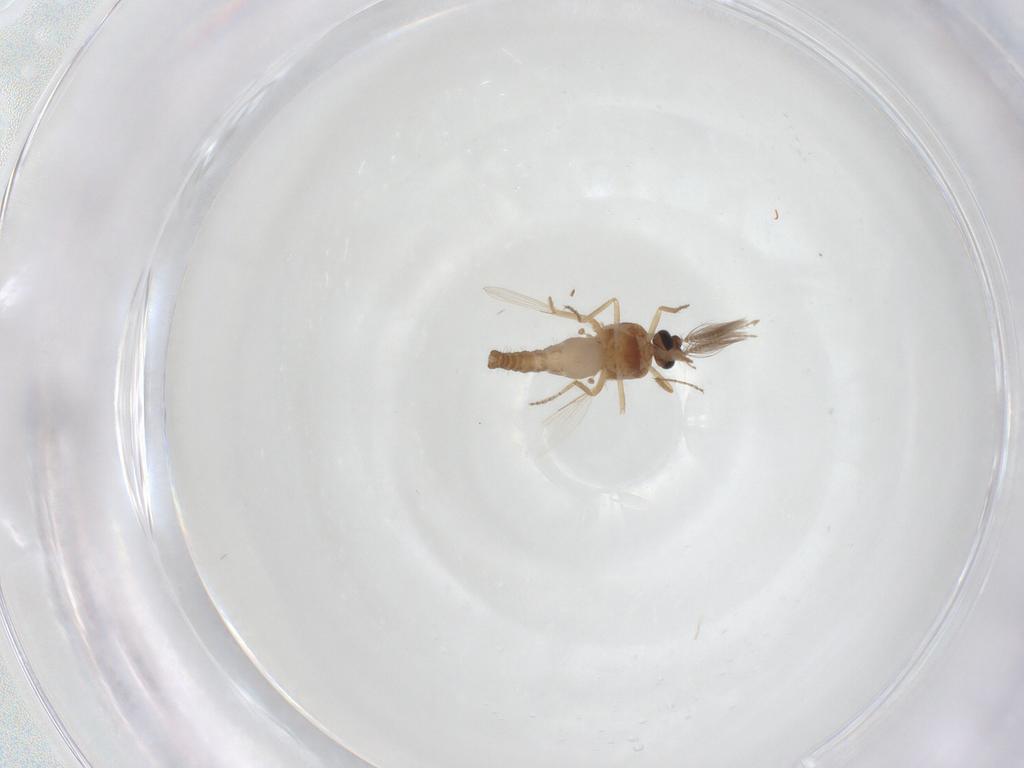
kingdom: Animalia
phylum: Arthropoda
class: Insecta
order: Diptera
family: Ceratopogonidae
